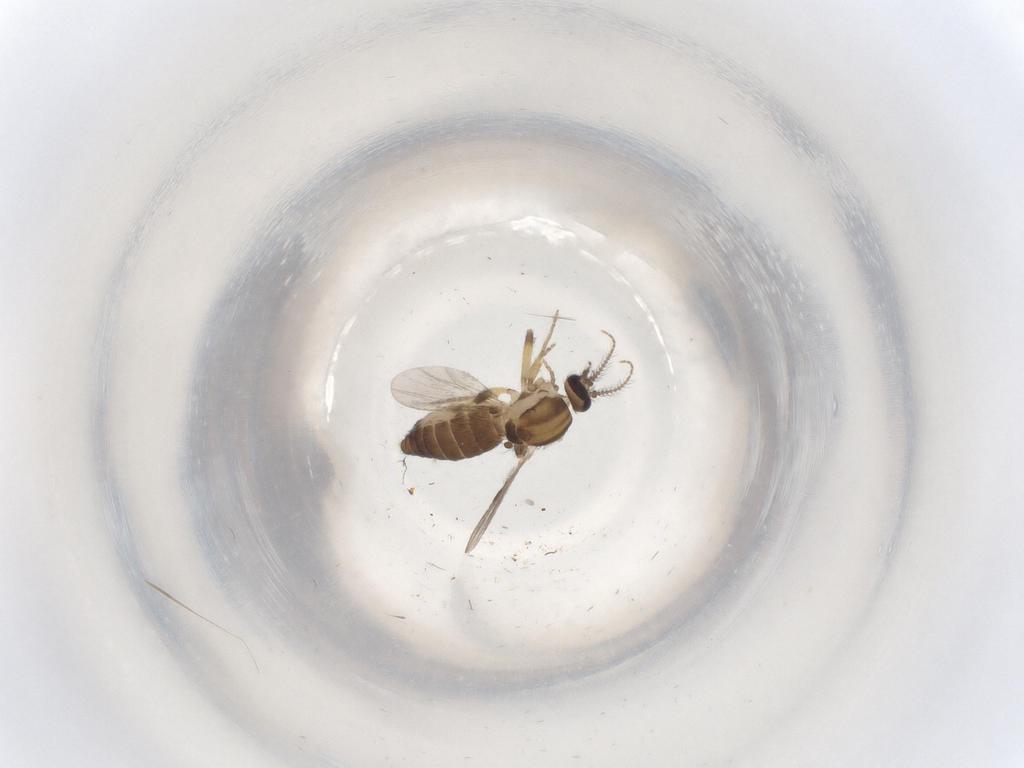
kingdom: Animalia
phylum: Arthropoda
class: Insecta
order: Diptera
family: Ceratopogonidae
